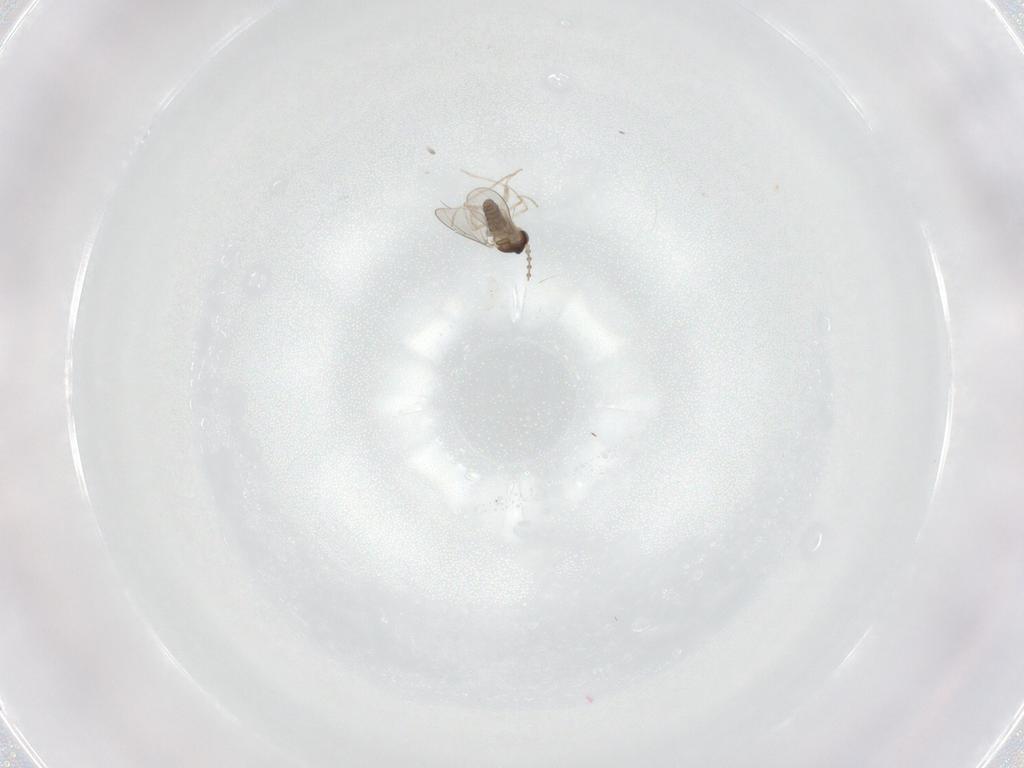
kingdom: Animalia
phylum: Arthropoda
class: Insecta
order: Diptera
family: Cecidomyiidae
